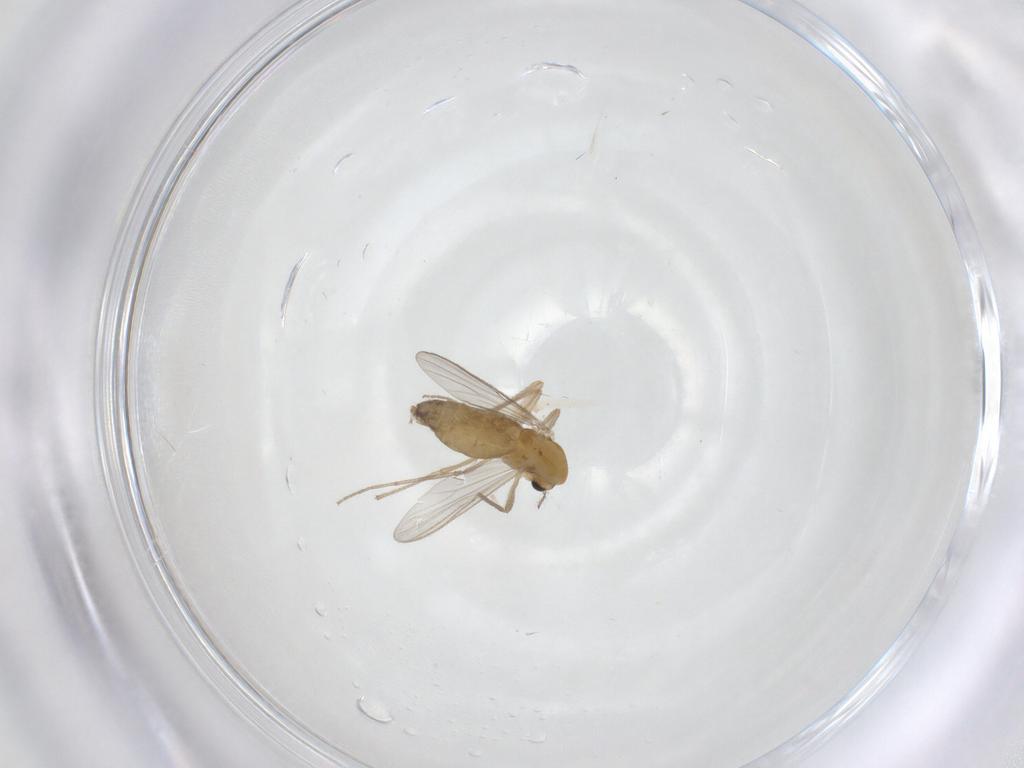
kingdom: Animalia
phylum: Arthropoda
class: Insecta
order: Diptera
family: Chironomidae
